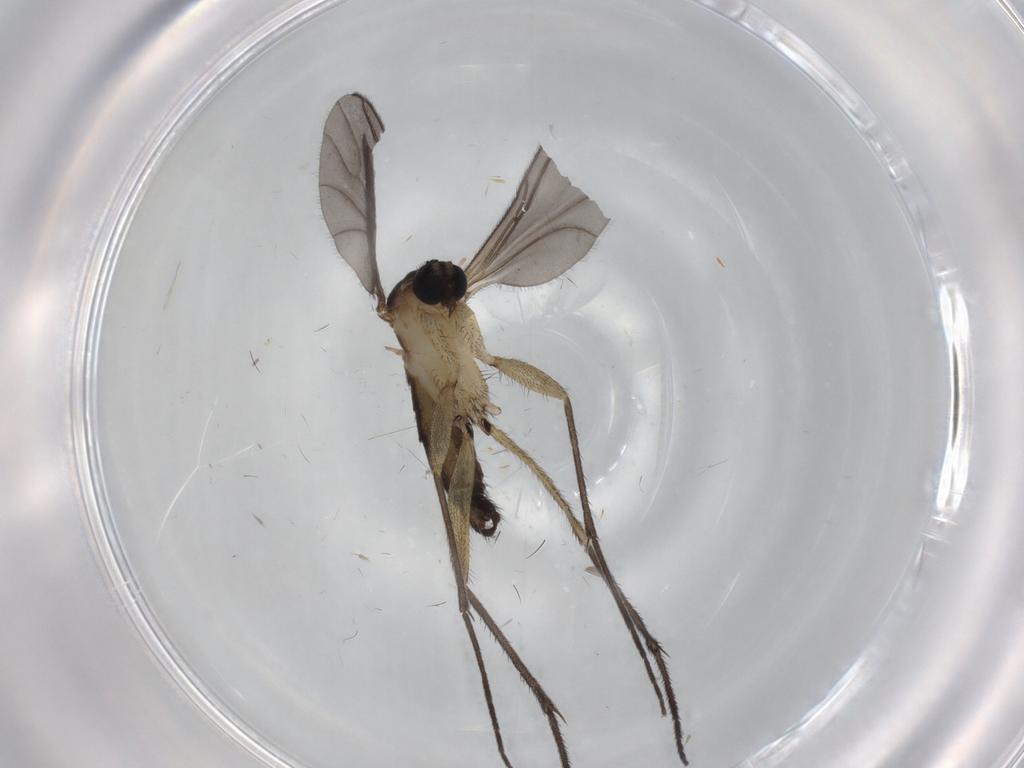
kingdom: Animalia
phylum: Arthropoda
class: Insecta
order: Diptera
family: Sciaridae
